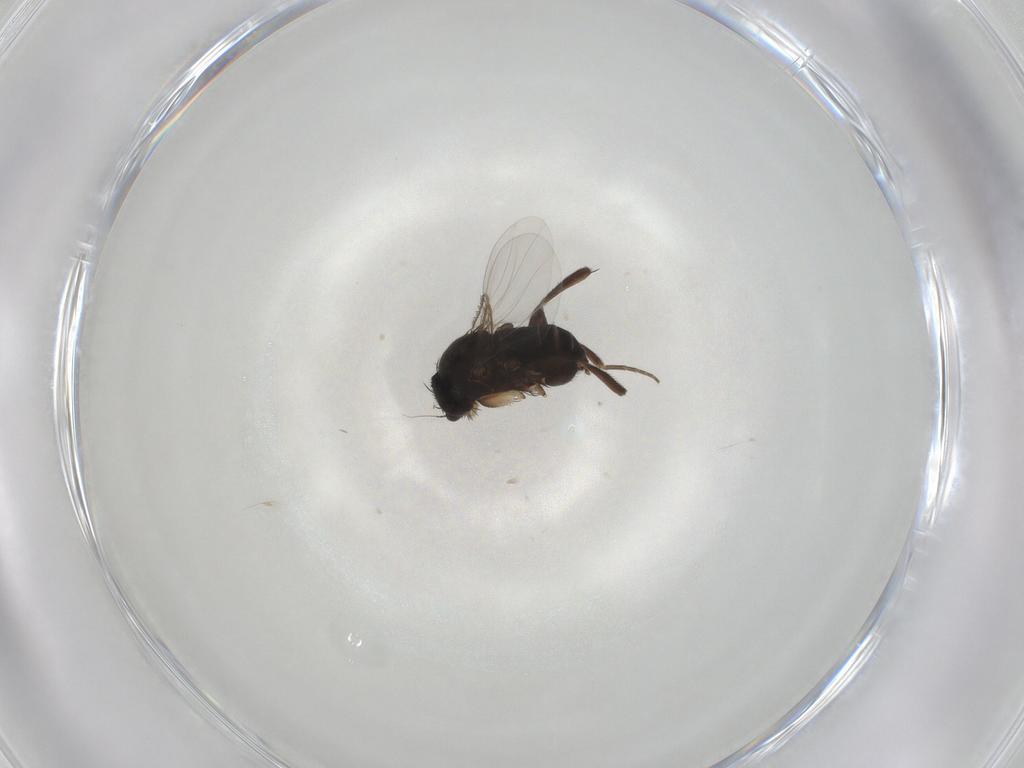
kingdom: Animalia
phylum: Arthropoda
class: Insecta
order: Diptera
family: Phoridae
